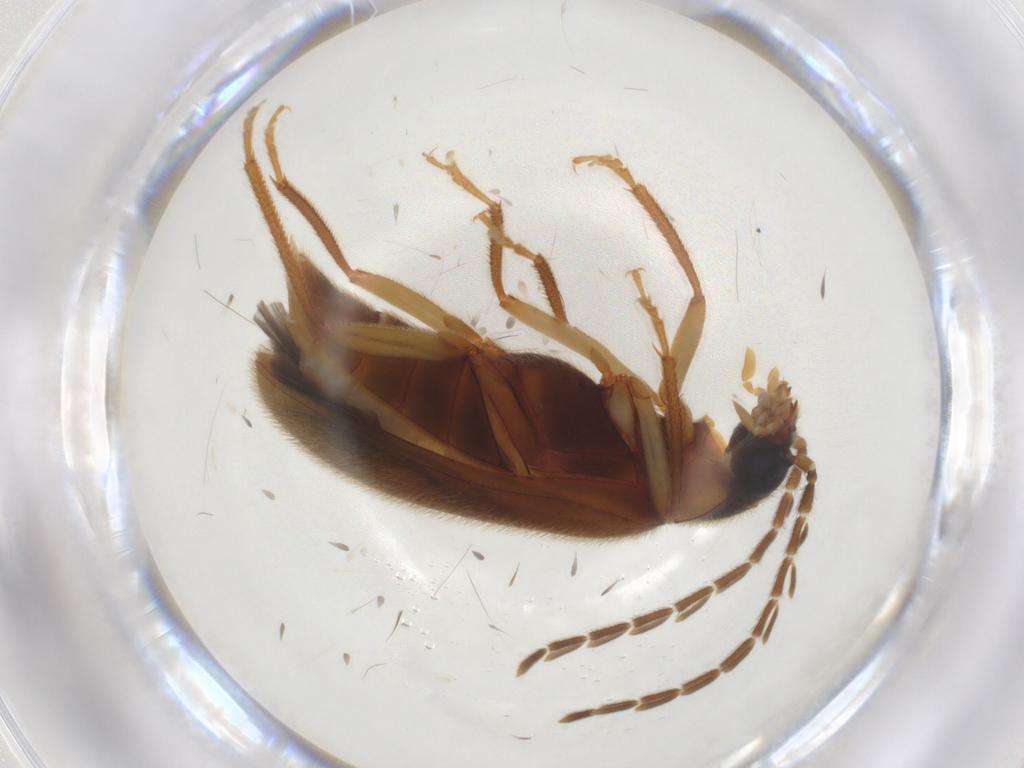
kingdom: Animalia
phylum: Arthropoda
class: Insecta
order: Coleoptera
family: Ptilodactylidae
